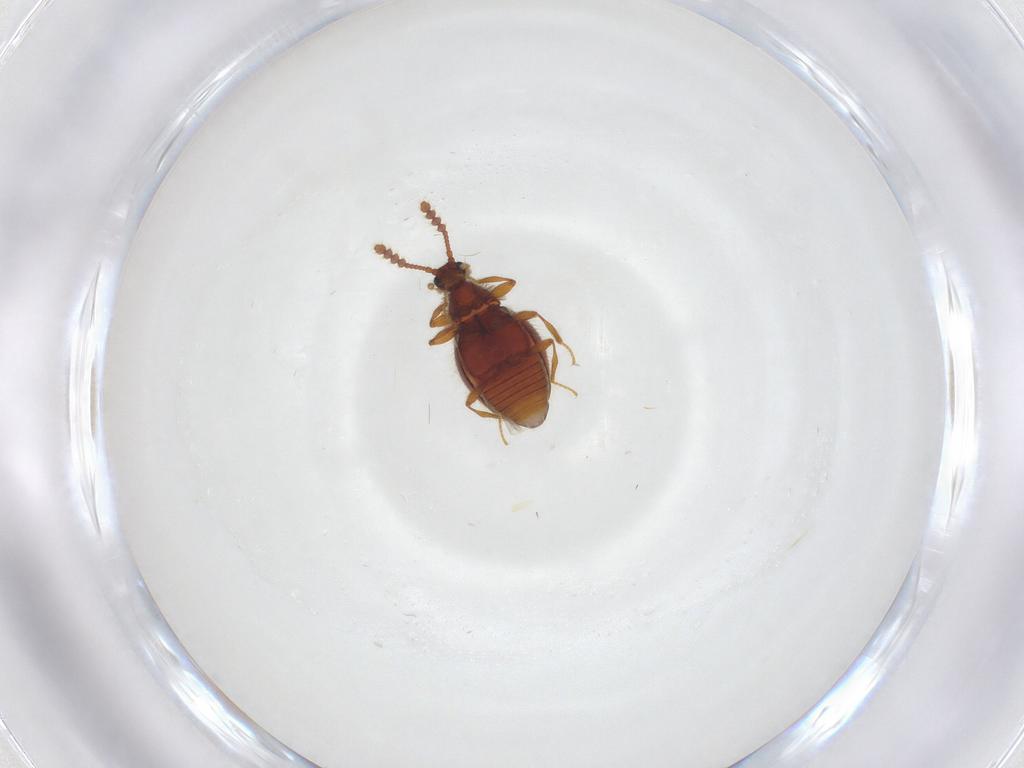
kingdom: Animalia
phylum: Arthropoda
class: Insecta
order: Coleoptera
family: Staphylinidae
